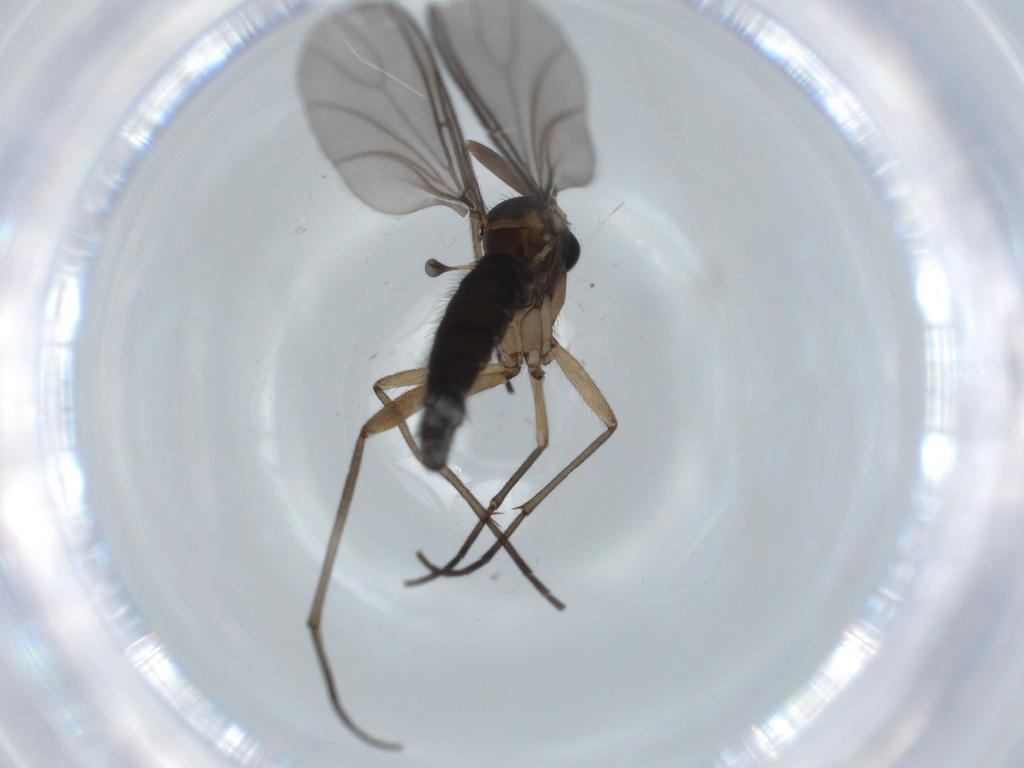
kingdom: Animalia
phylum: Arthropoda
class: Insecta
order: Diptera
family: Sciaridae
